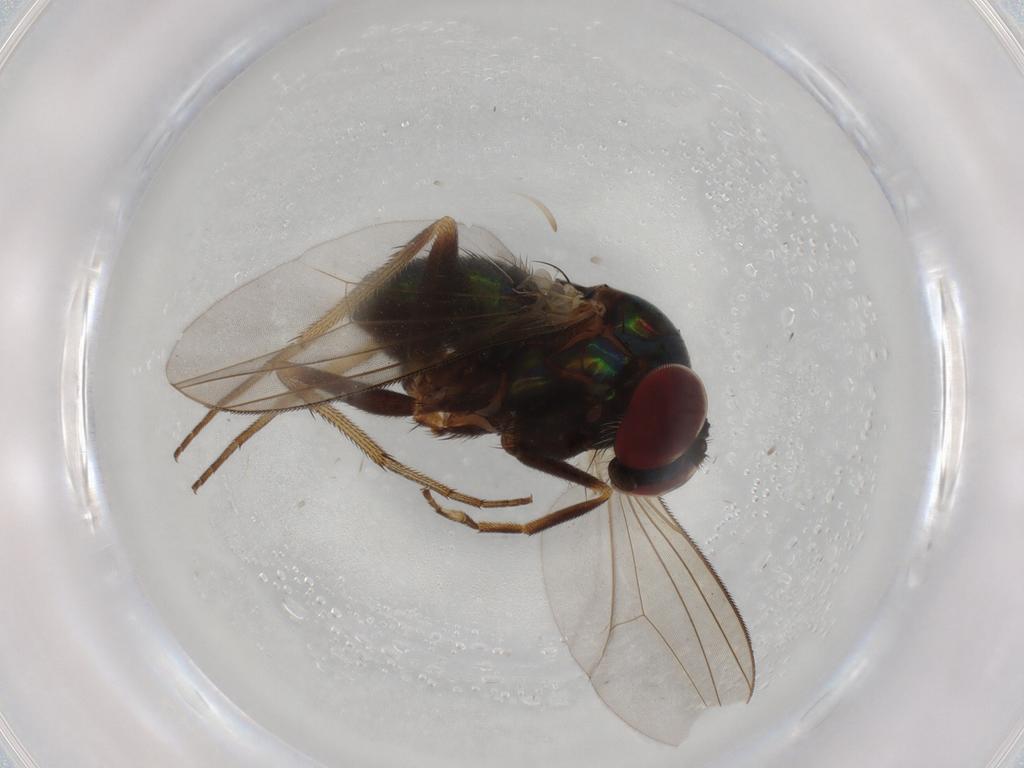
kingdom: Animalia
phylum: Arthropoda
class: Insecta
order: Diptera
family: Dolichopodidae
